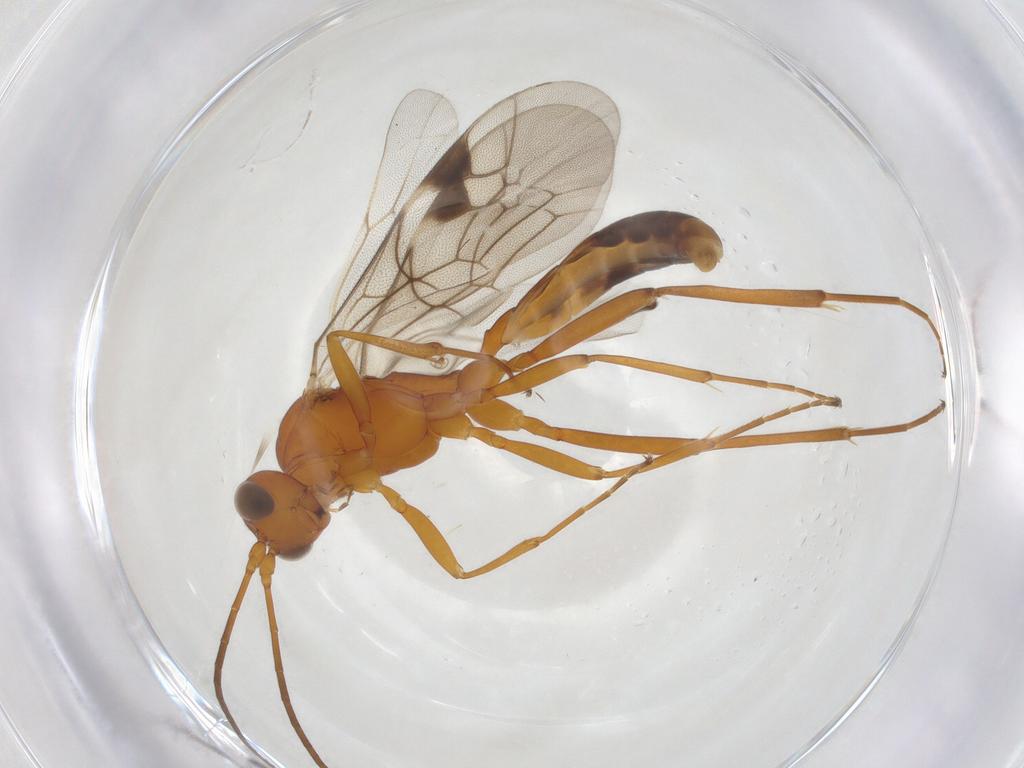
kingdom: Animalia
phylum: Arthropoda
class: Insecta
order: Hymenoptera
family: Ichneumonidae
